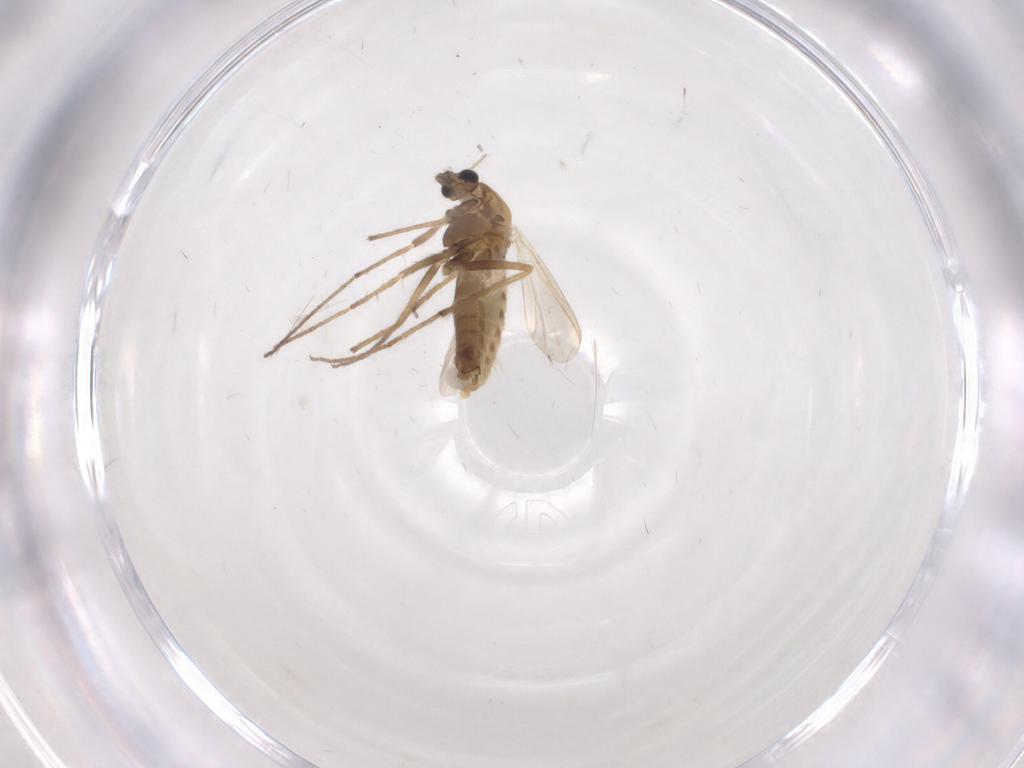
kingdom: Animalia
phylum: Arthropoda
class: Insecta
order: Diptera
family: Chironomidae
